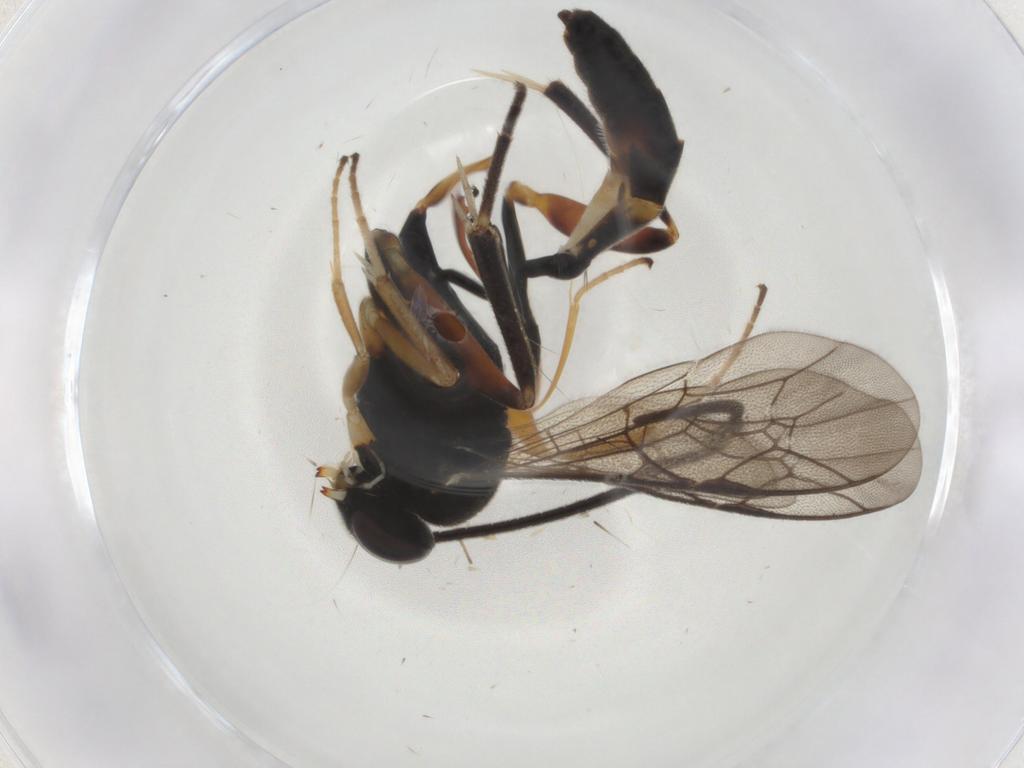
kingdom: Animalia
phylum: Arthropoda
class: Insecta
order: Hymenoptera
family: Ichneumonidae
